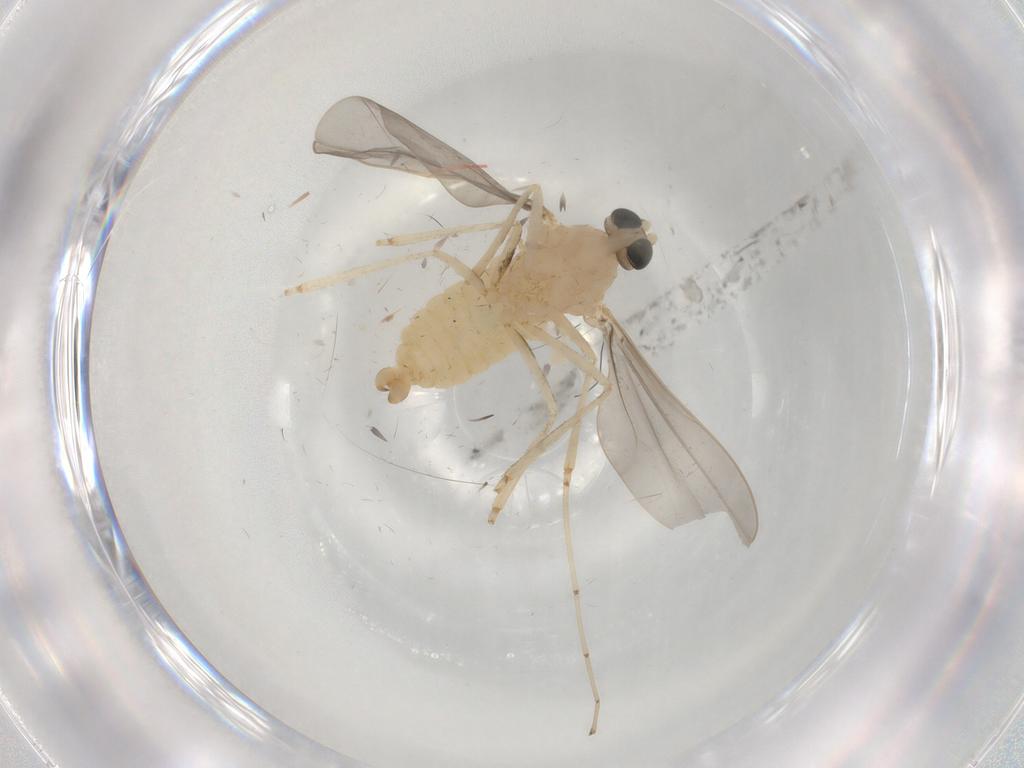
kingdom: Animalia
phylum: Arthropoda
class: Insecta
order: Diptera
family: Cecidomyiidae
